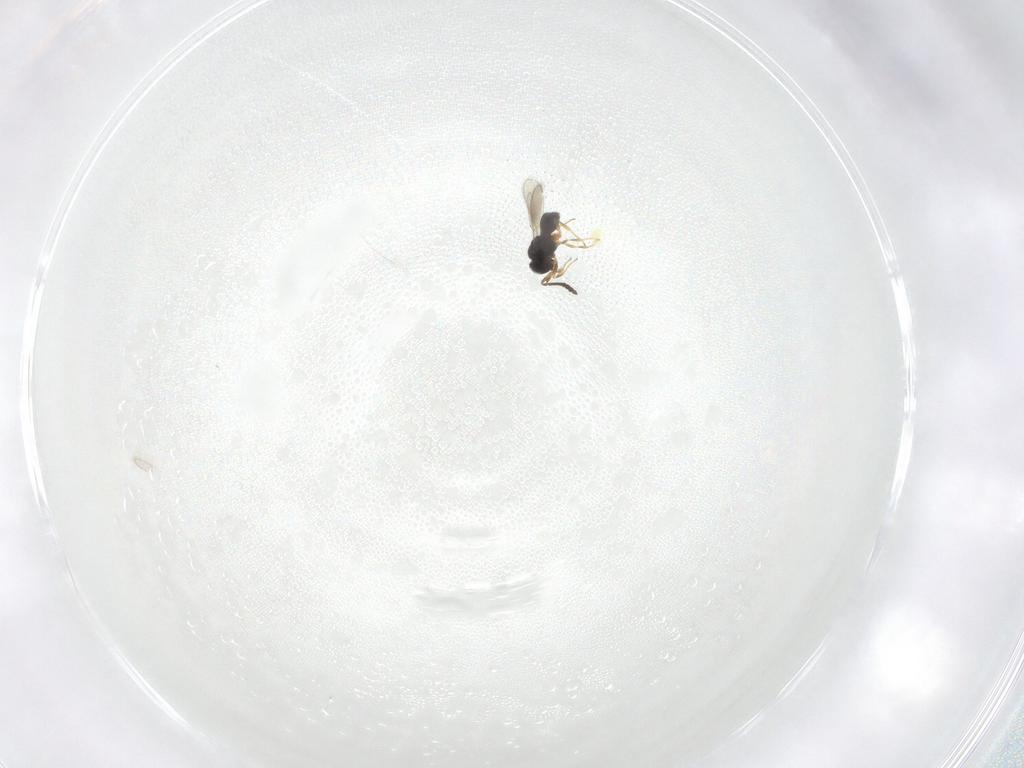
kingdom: Animalia
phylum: Arthropoda
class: Insecta
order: Hymenoptera
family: Scelionidae
